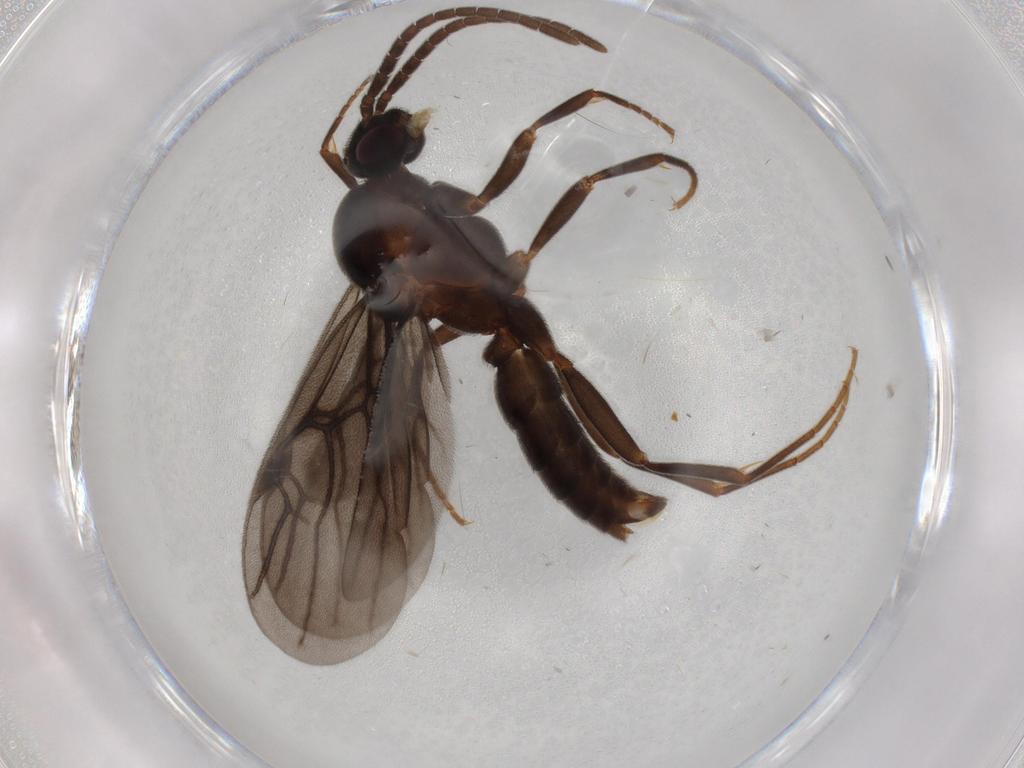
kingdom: Animalia
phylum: Arthropoda
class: Insecta
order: Hymenoptera
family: Formicidae
